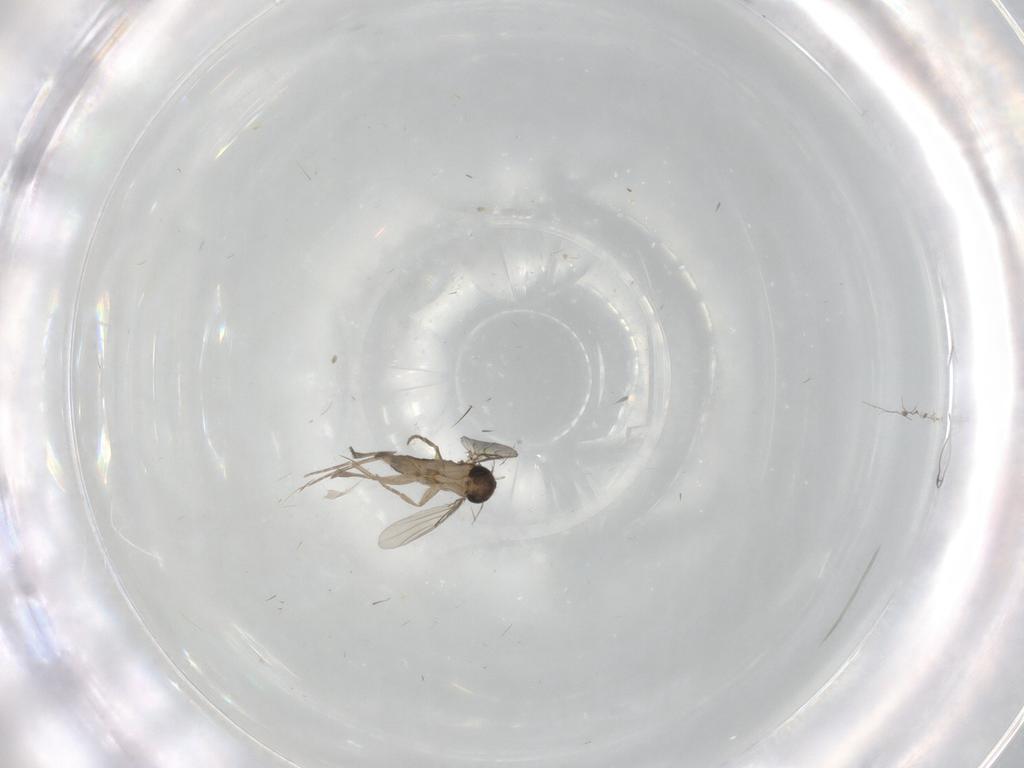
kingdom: Animalia
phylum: Arthropoda
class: Insecta
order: Diptera
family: Phoridae
